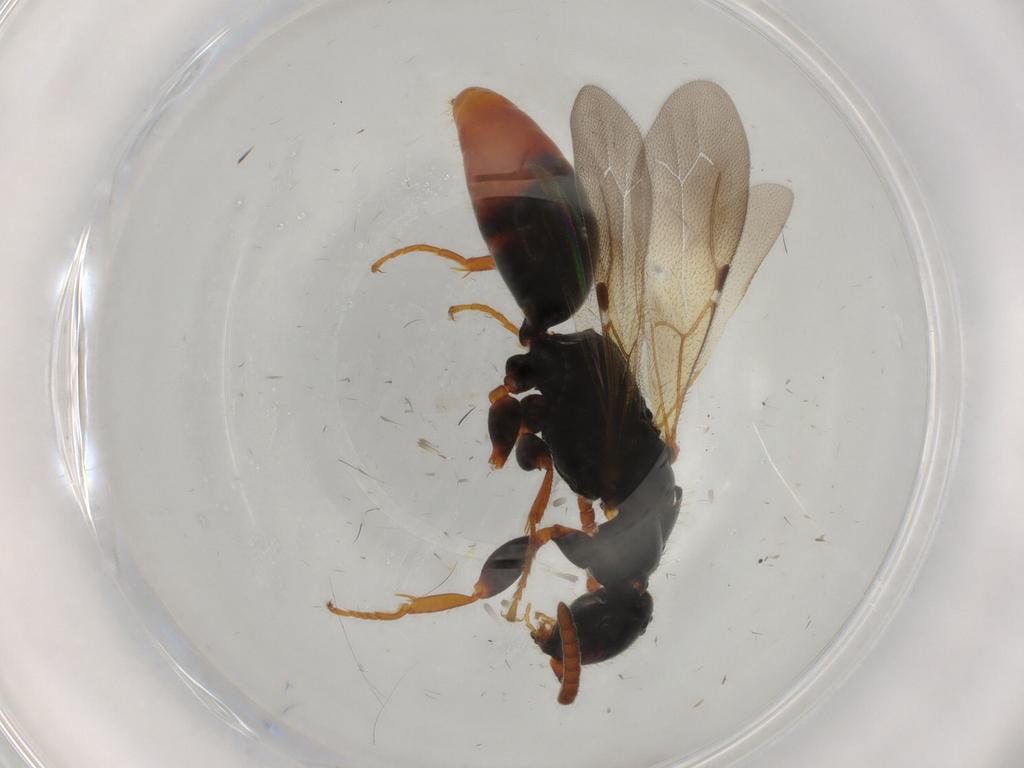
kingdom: Animalia
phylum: Arthropoda
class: Insecta
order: Hymenoptera
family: Bethylidae
